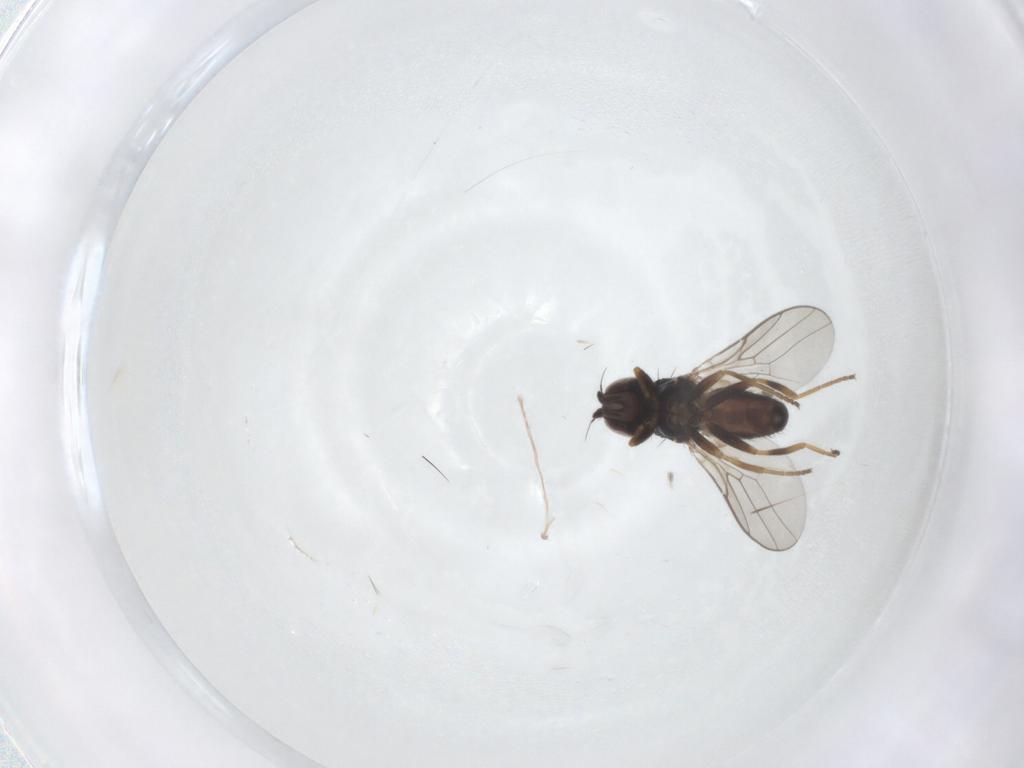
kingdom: Animalia
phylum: Arthropoda
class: Insecta
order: Diptera
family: Chloropidae
